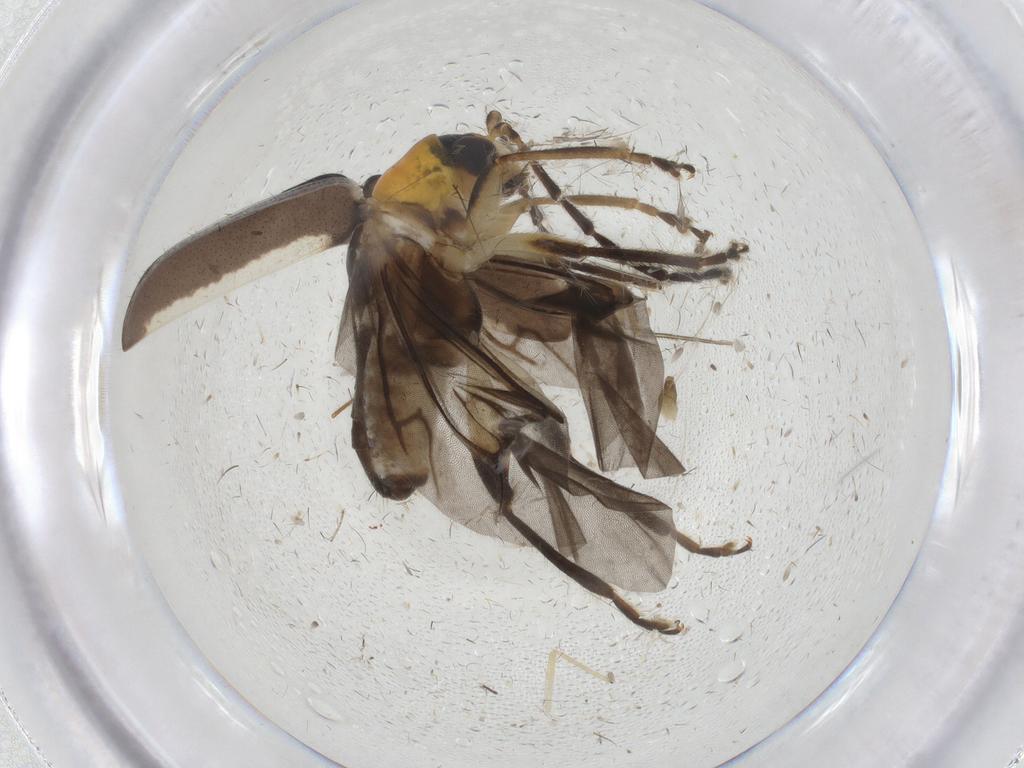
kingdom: Animalia
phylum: Arthropoda
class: Insecta
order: Coleoptera
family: Chrysomelidae
